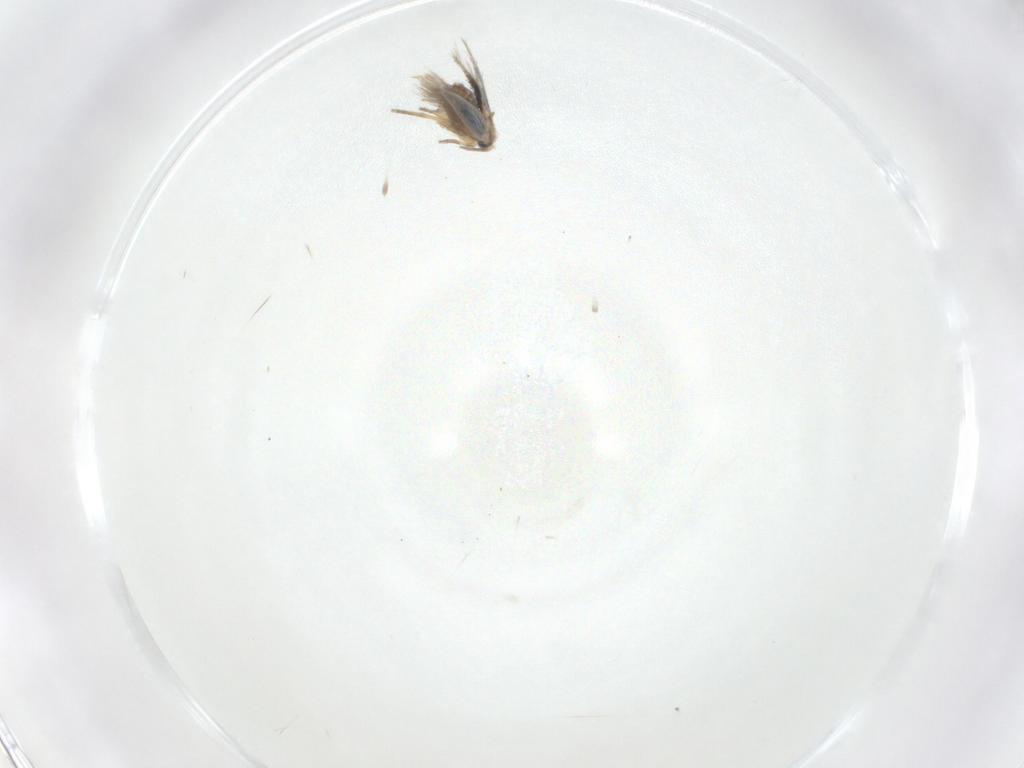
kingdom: Animalia
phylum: Arthropoda
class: Insecta
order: Lepidoptera
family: Nepticulidae
